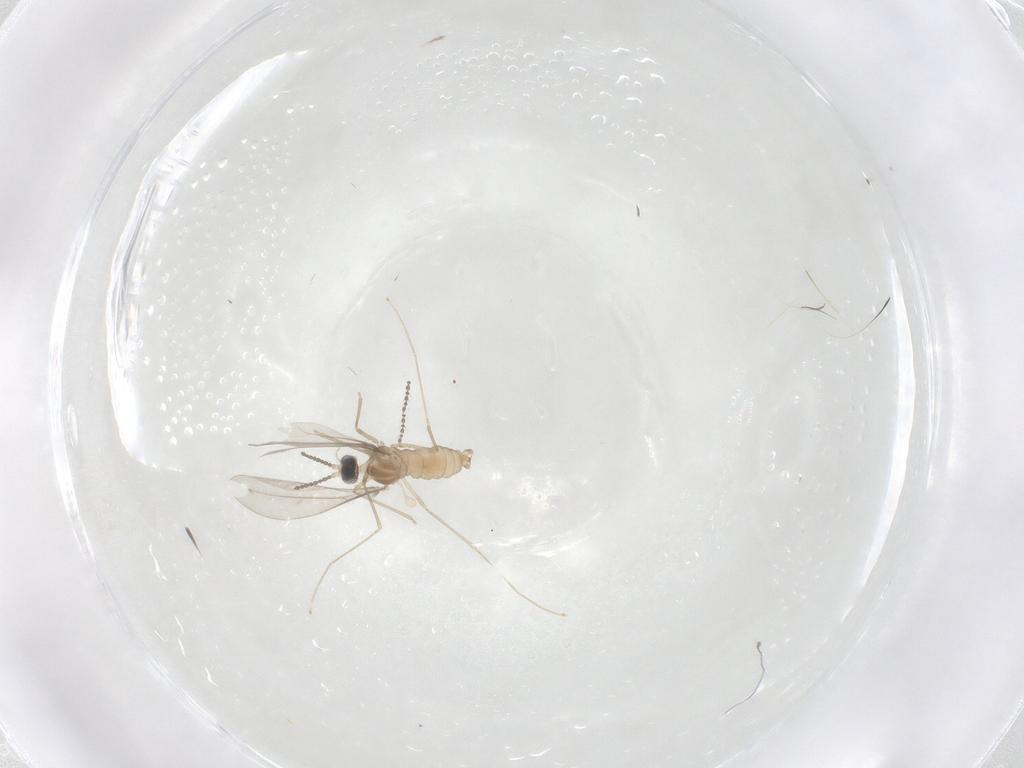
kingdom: Animalia
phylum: Arthropoda
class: Insecta
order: Diptera
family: Cecidomyiidae
